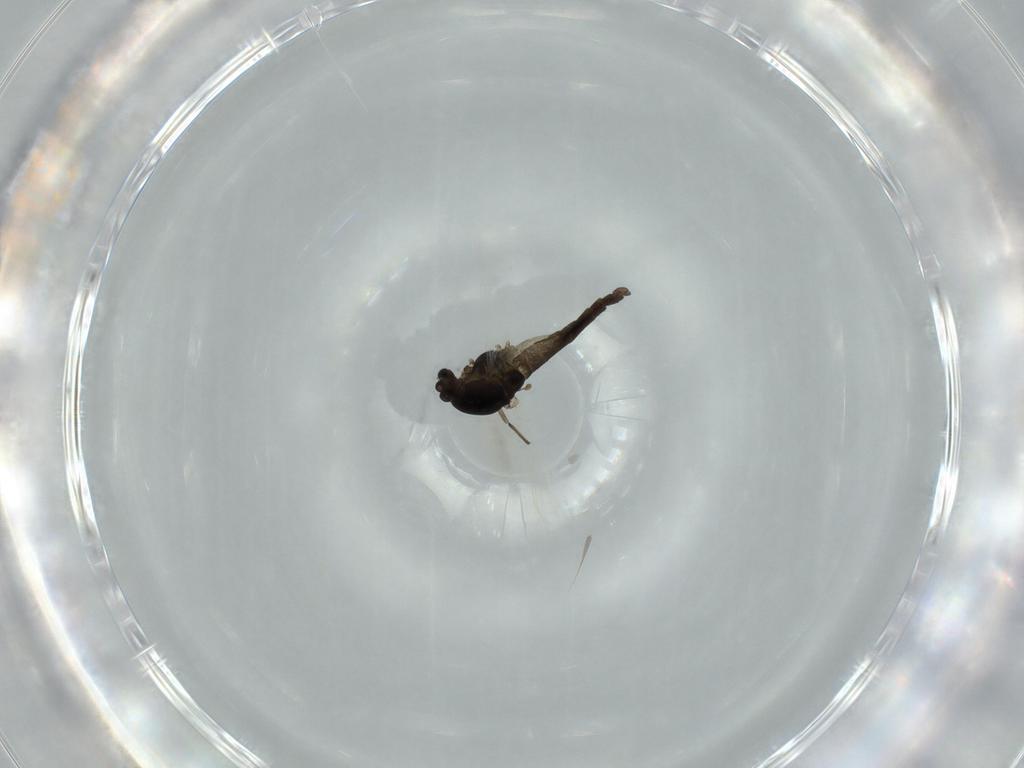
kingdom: Animalia
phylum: Arthropoda
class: Insecta
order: Diptera
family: Chironomidae
